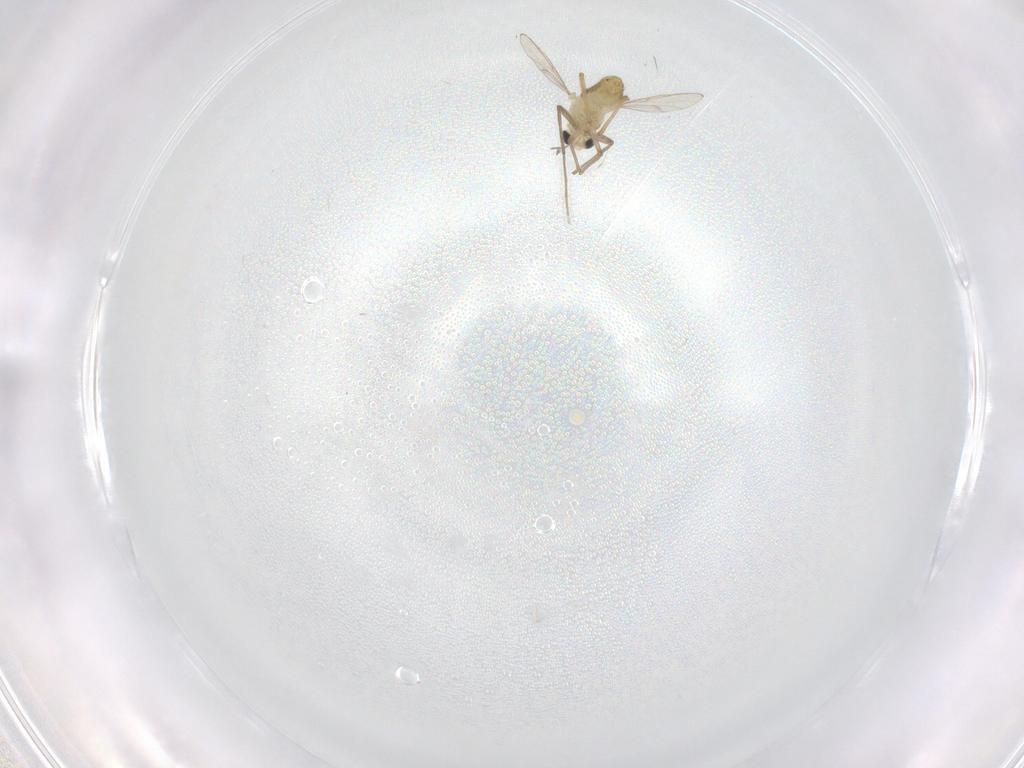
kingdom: Animalia
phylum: Arthropoda
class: Insecta
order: Diptera
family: Chironomidae
